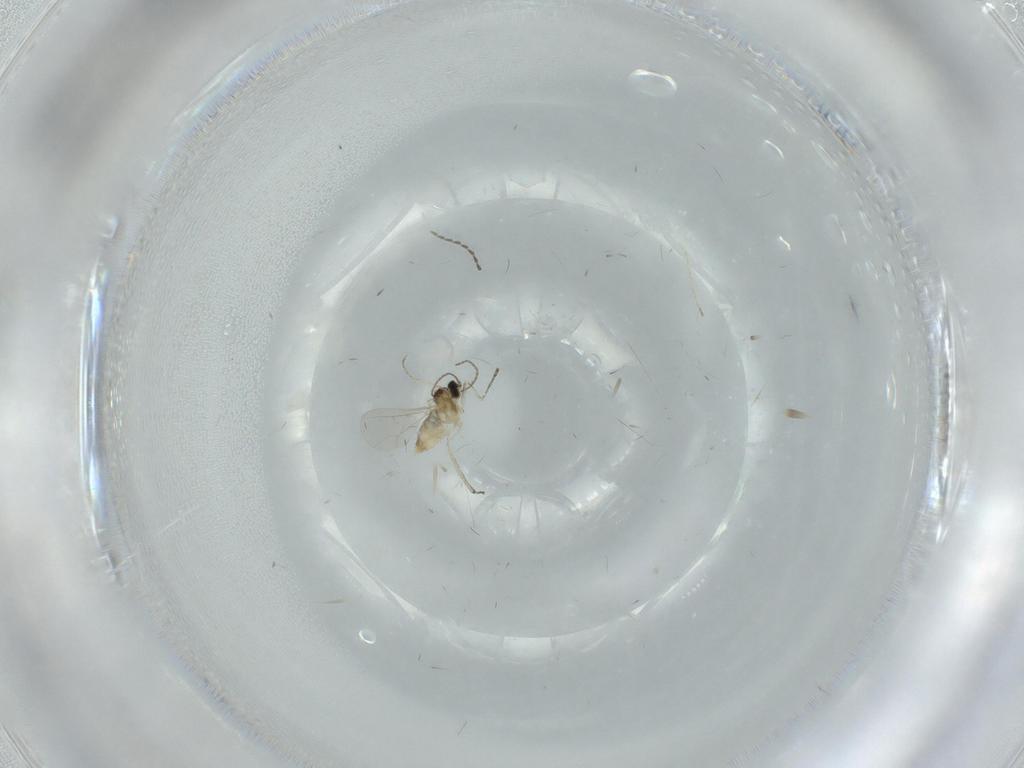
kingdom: Animalia
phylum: Arthropoda
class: Insecta
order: Diptera
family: Cecidomyiidae
